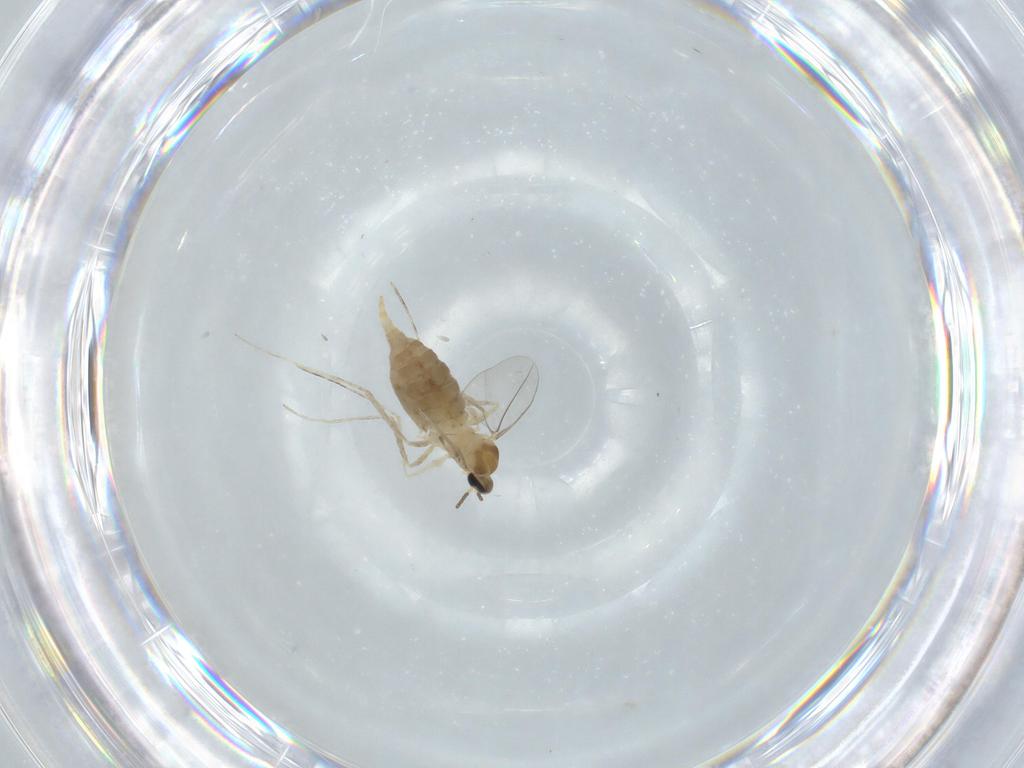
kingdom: Animalia
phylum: Arthropoda
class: Insecta
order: Diptera
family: Cecidomyiidae
